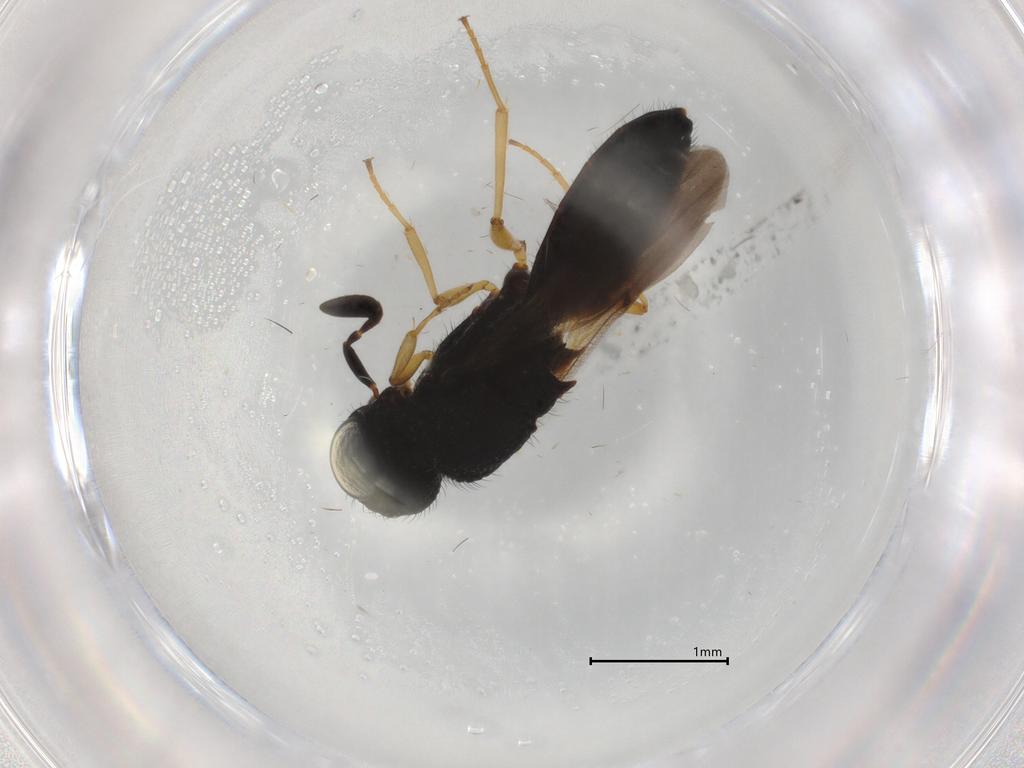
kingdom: Animalia
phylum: Arthropoda
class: Insecta
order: Hymenoptera
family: Scelionidae
